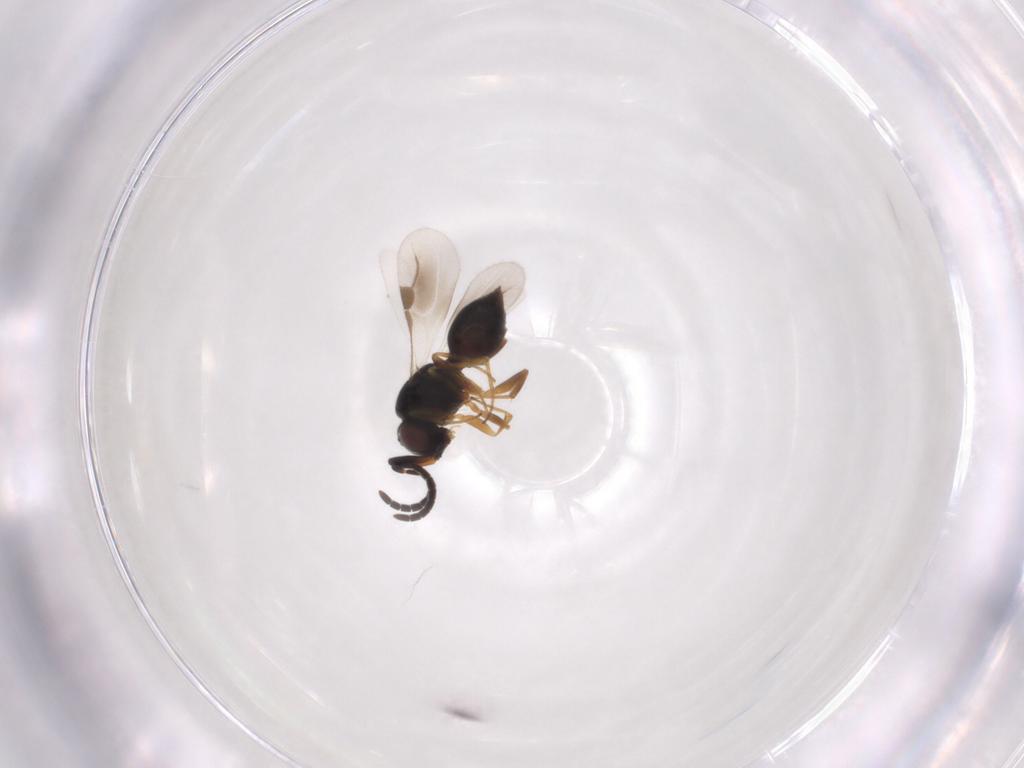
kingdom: Animalia
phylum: Arthropoda
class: Insecta
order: Hymenoptera
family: Megaspilidae
